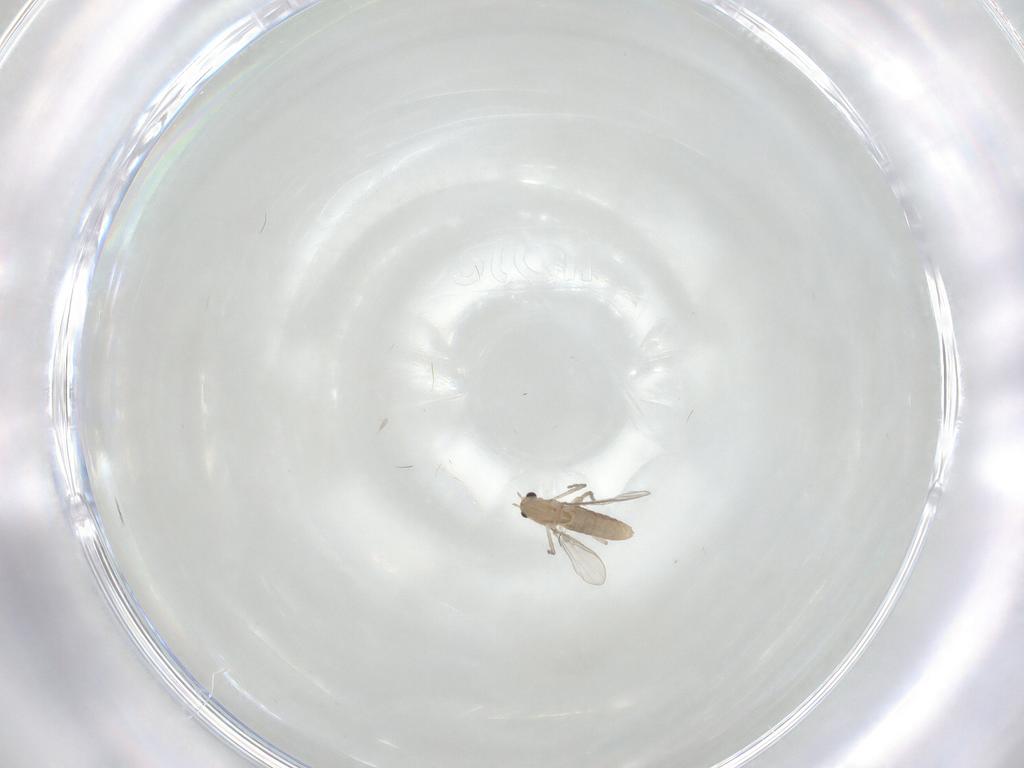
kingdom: Animalia
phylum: Arthropoda
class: Insecta
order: Diptera
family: Chironomidae
